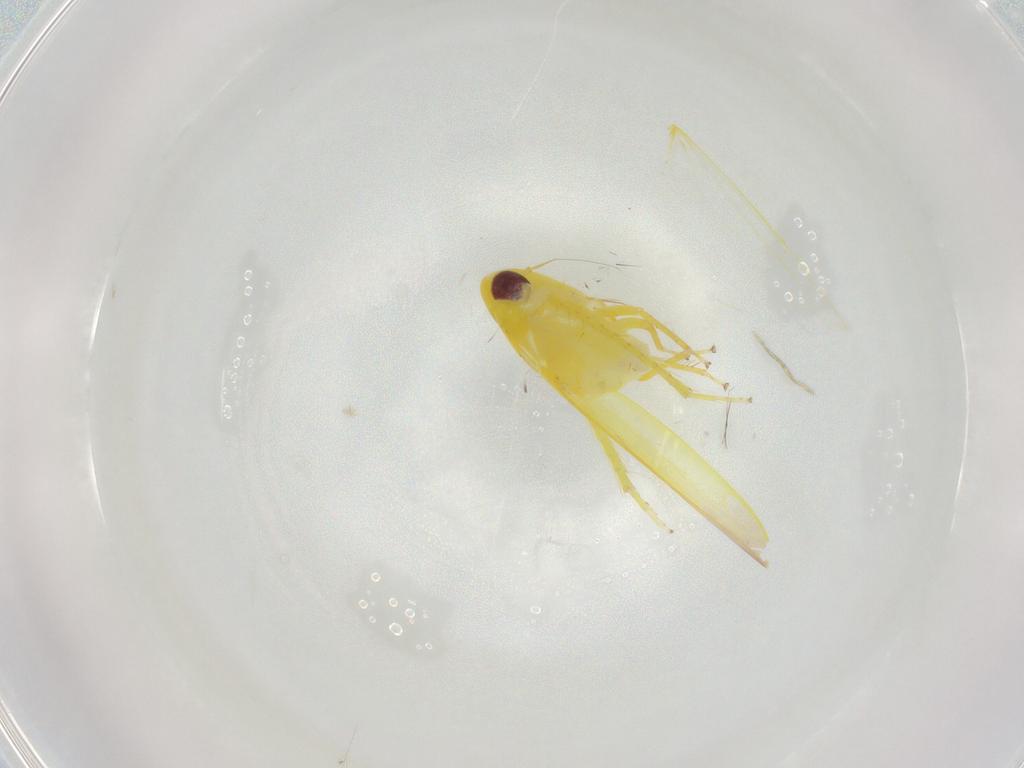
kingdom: Animalia
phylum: Arthropoda
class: Insecta
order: Hemiptera
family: Cicadellidae
